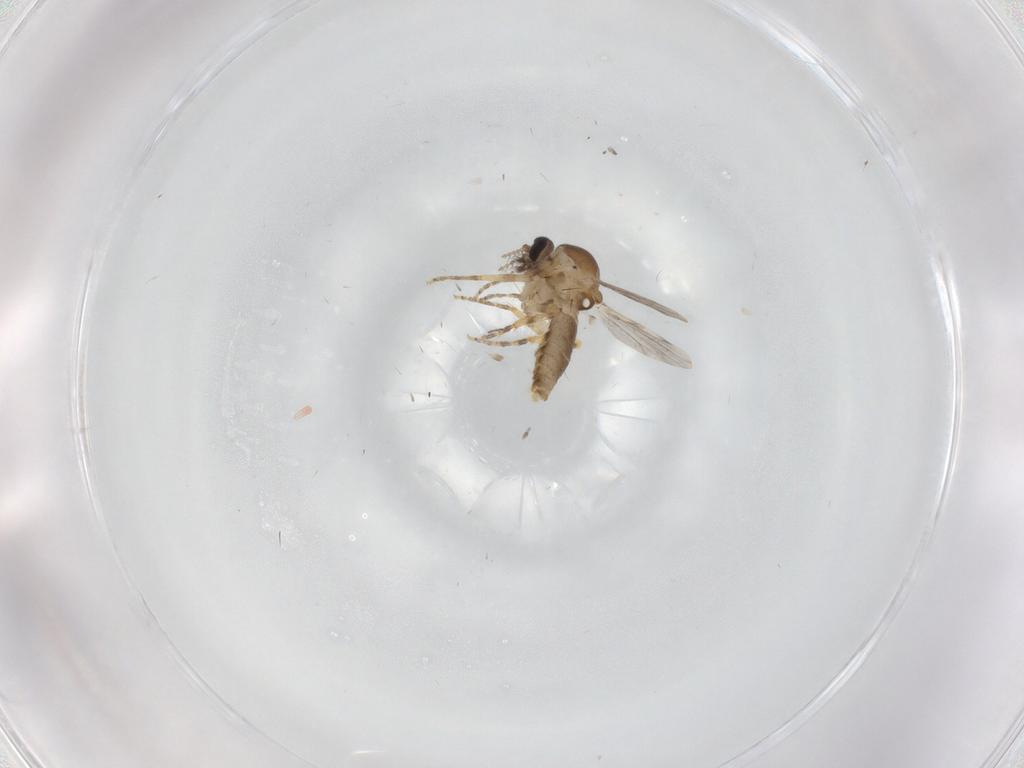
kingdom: Animalia
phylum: Arthropoda
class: Insecta
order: Diptera
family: Ceratopogonidae
